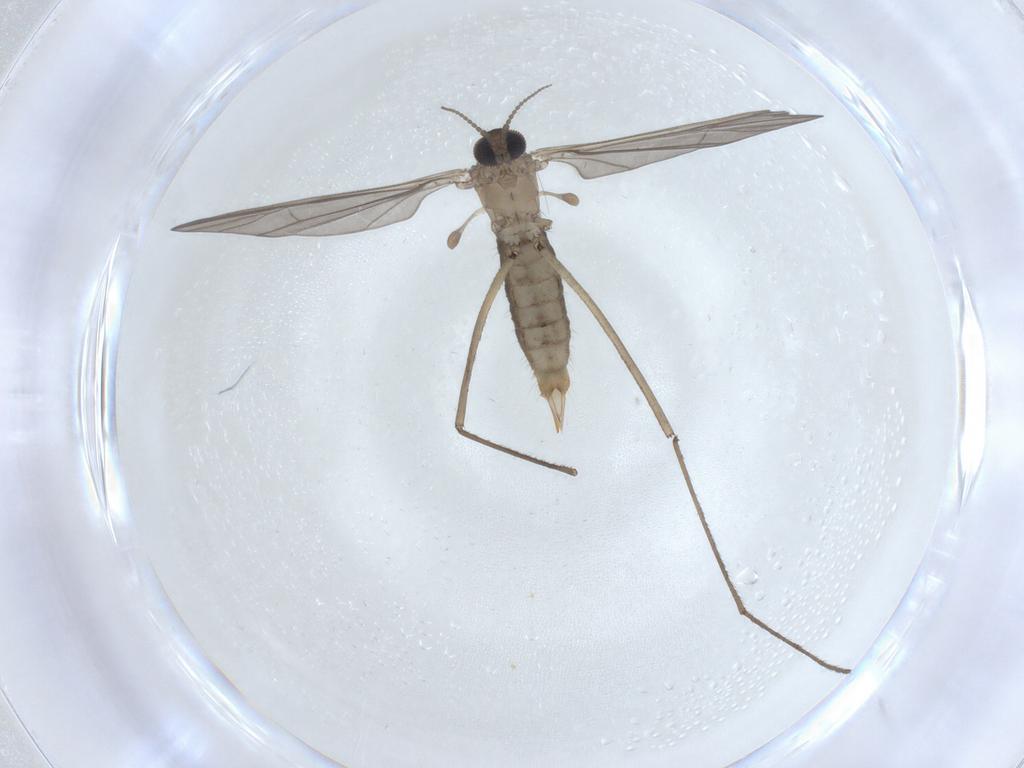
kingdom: Animalia
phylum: Arthropoda
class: Insecta
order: Diptera
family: Limoniidae
